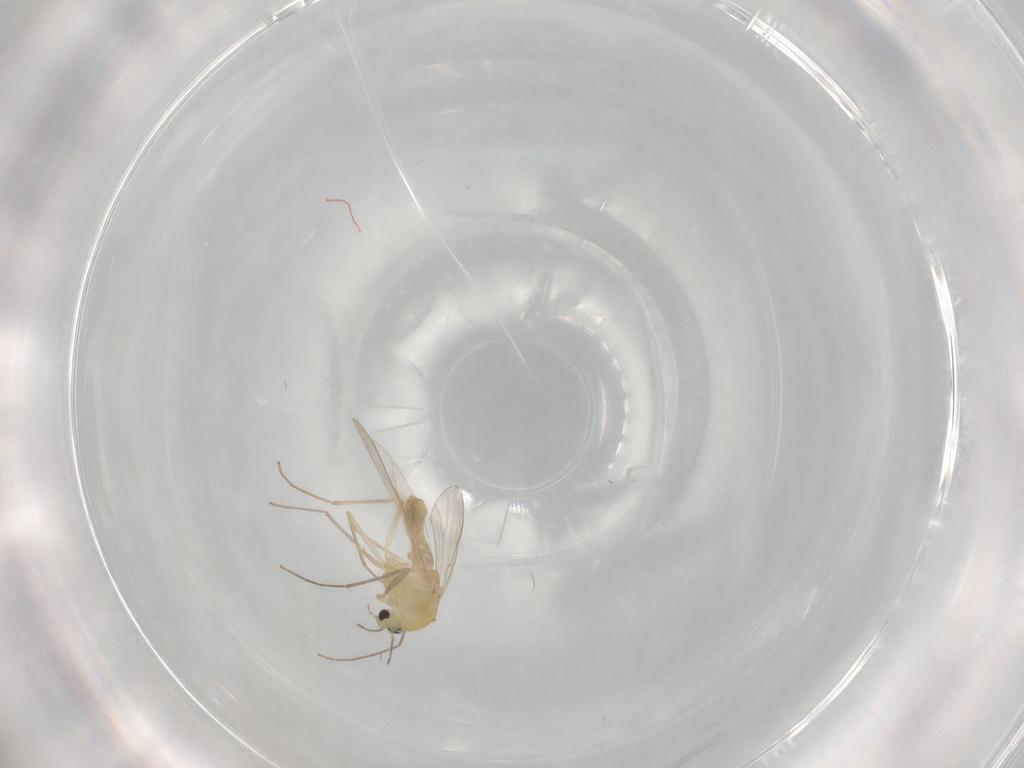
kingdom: Animalia
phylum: Arthropoda
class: Insecta
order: Diptera
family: Chironomidae
